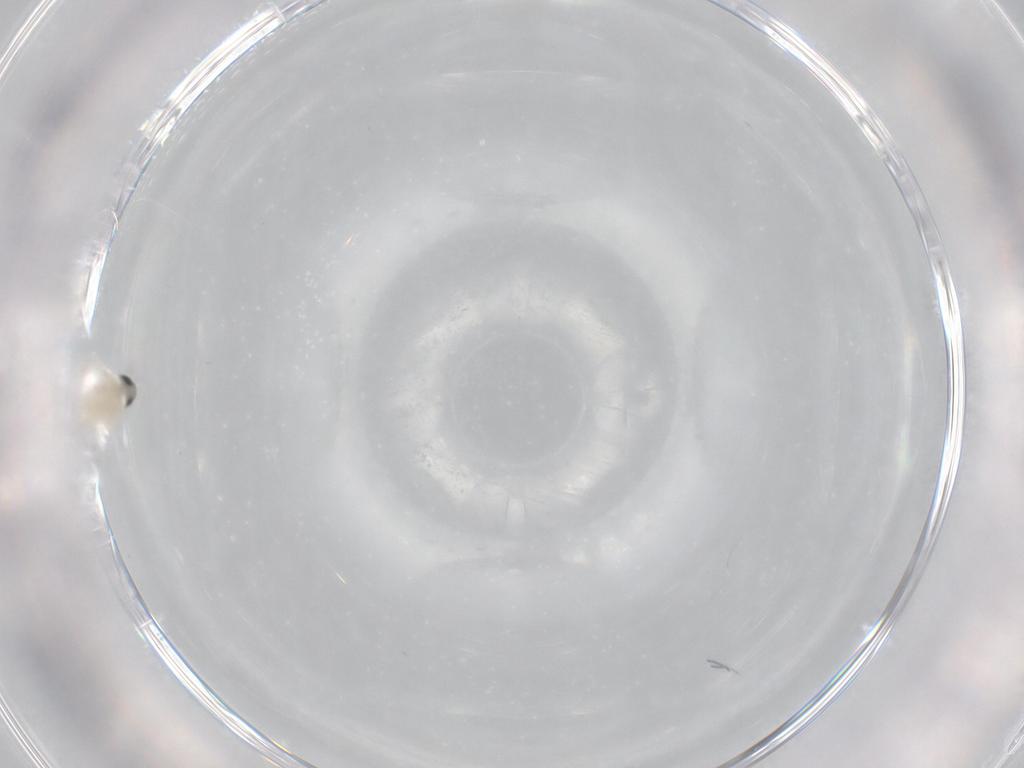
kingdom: Animalia
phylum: Arthropoda
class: Insecta
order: Diptera
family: Cecidomyiidae
